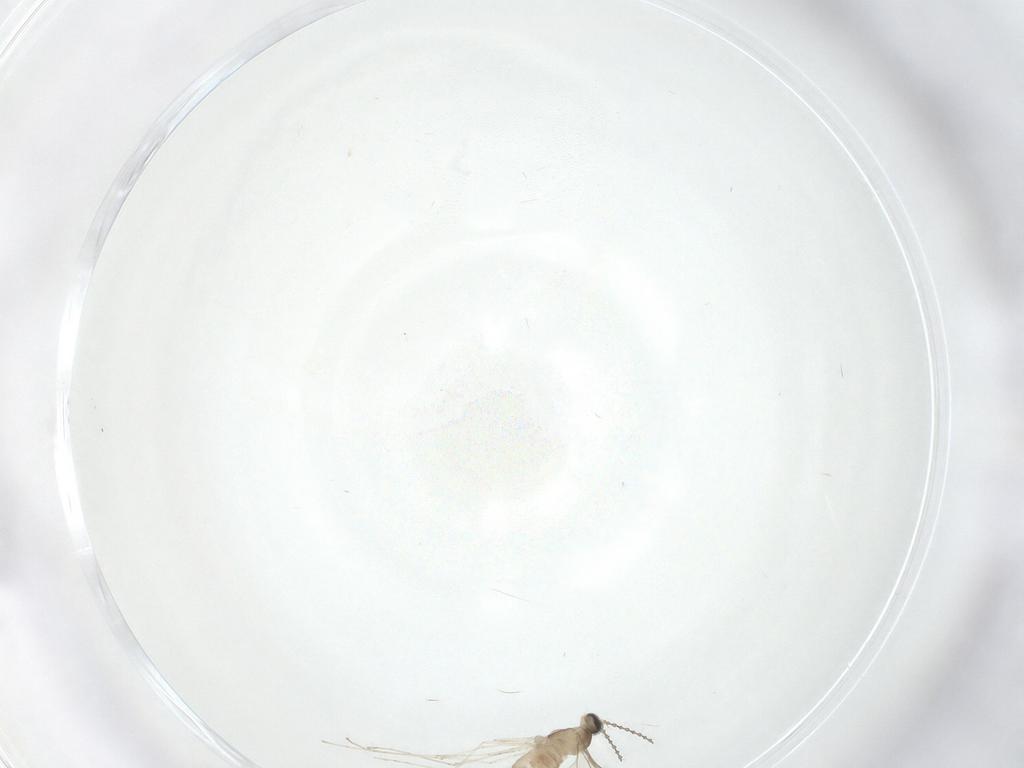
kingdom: Animalia
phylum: Arthropoda
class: Insecta
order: Diptera
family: Cecidomyiidae
